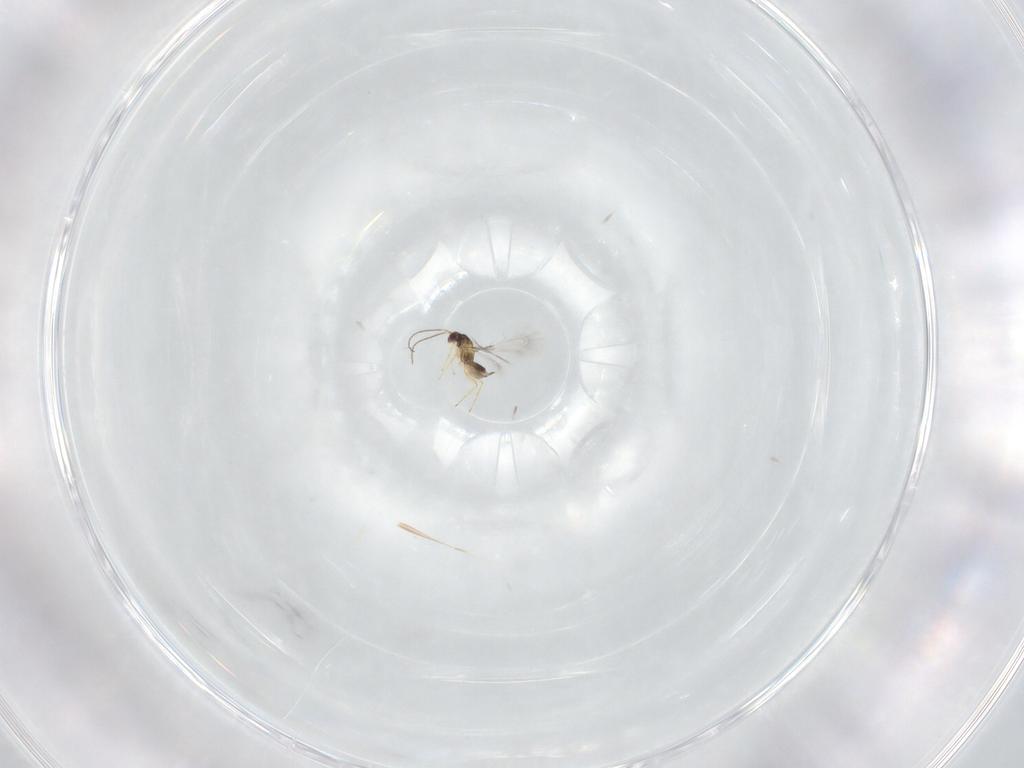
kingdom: Animalia
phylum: Arthropoda
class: Insecta
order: Hymenoptera
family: Mymaridae
